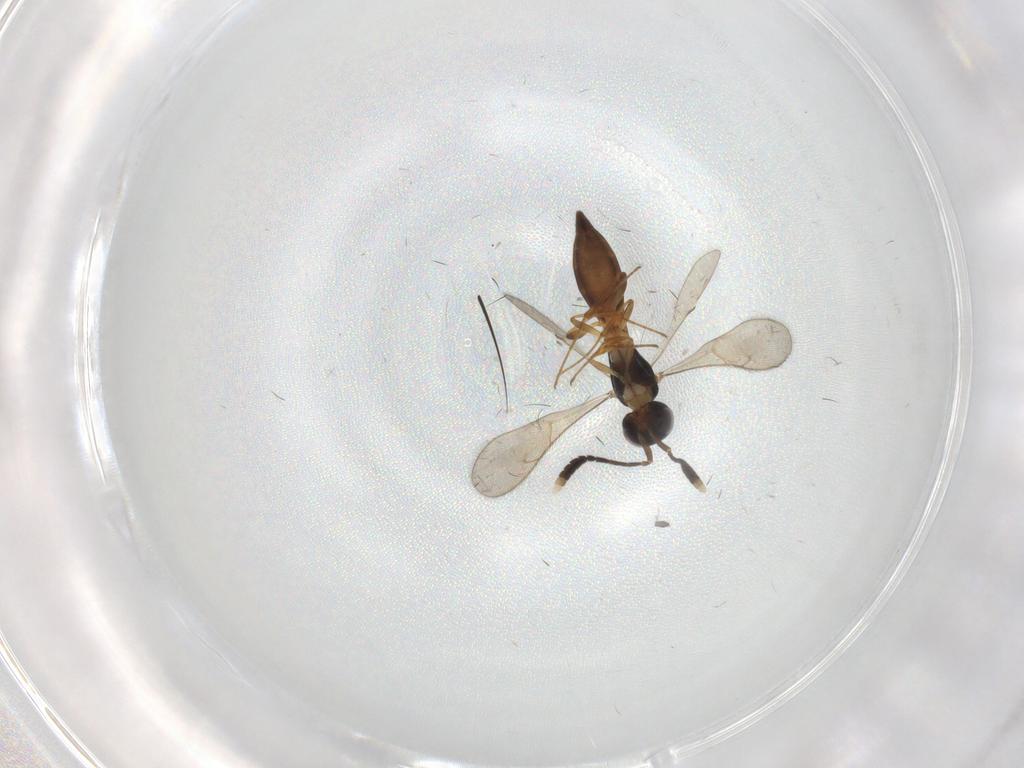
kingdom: Animalia
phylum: Arthropoda
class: Insecta
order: Hymenoptera
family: Scelionidae
